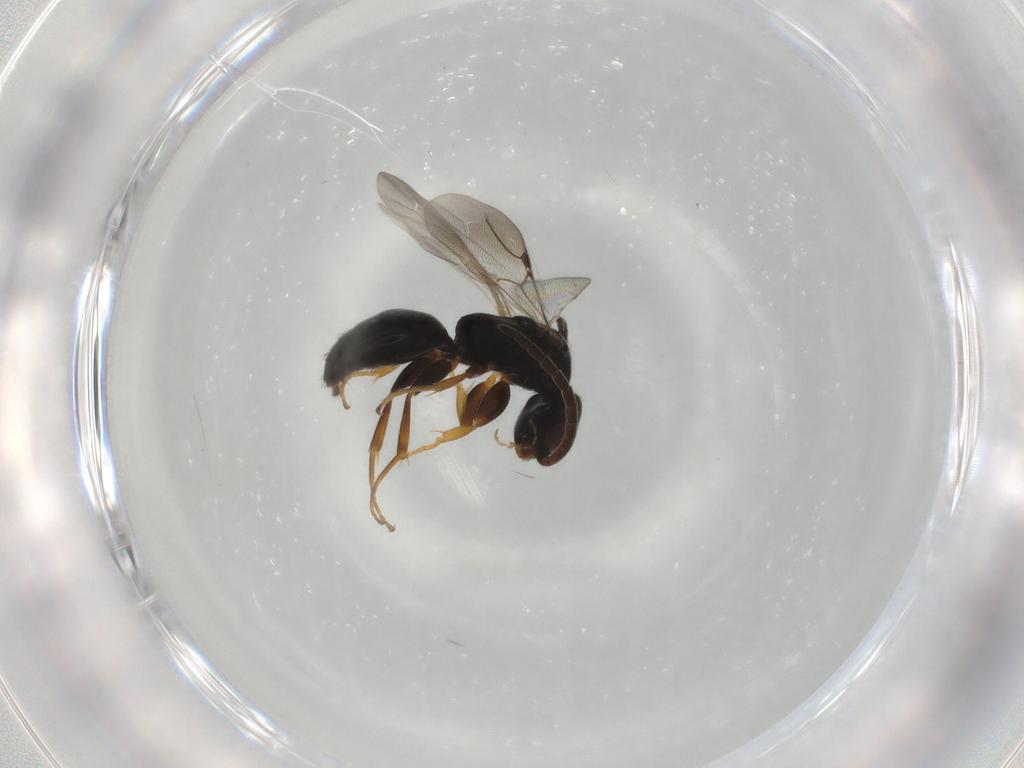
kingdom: Animalia
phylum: Arthropoda
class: Insecta
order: Hymenoptera
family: Bethylidae
